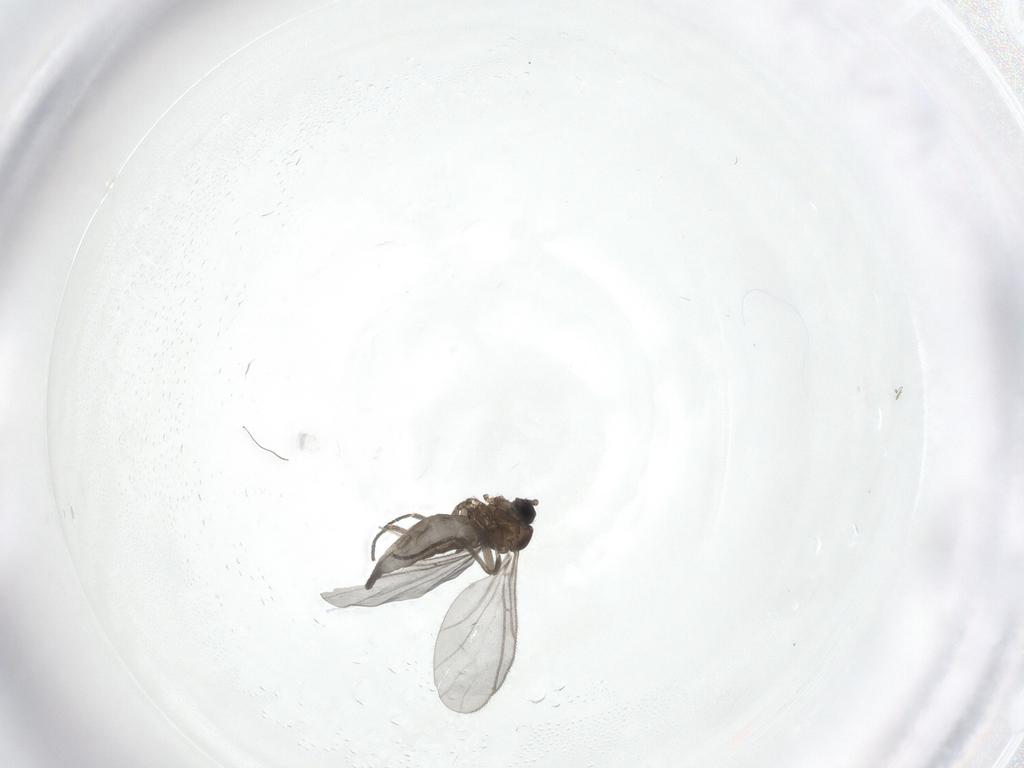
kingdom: Animalia
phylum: Arthropoda
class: Insecta
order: Diptera
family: Sciaridae
